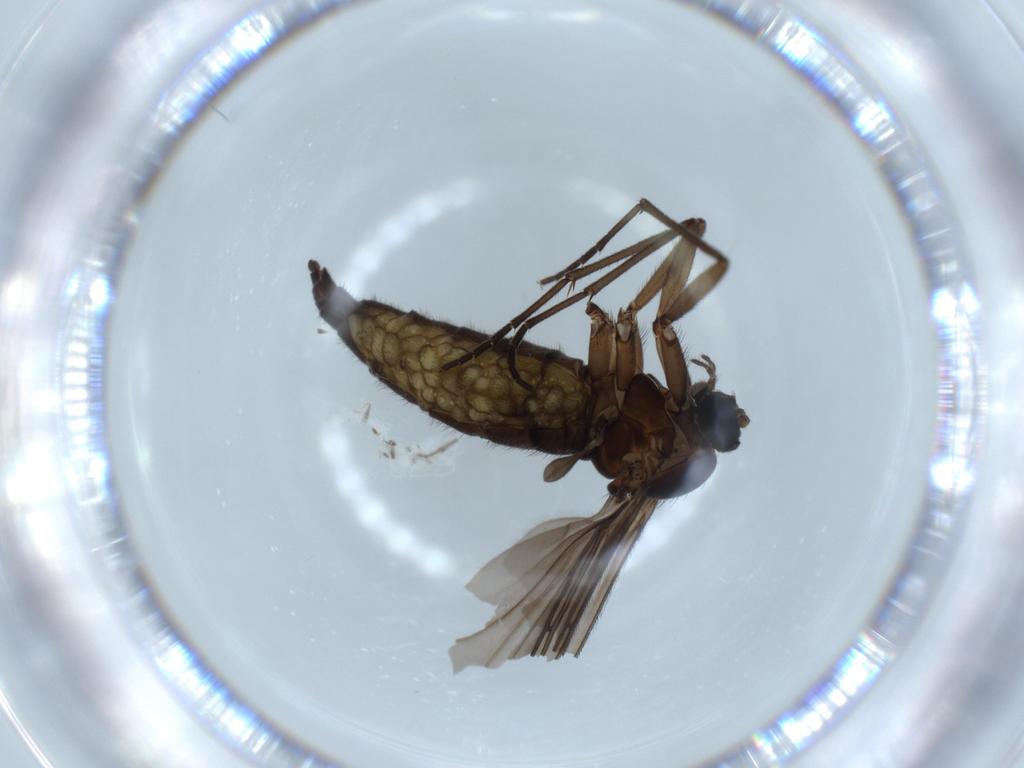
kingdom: Animalia
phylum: Arthropoda
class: Insecta
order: Diptera
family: Sciaridae
